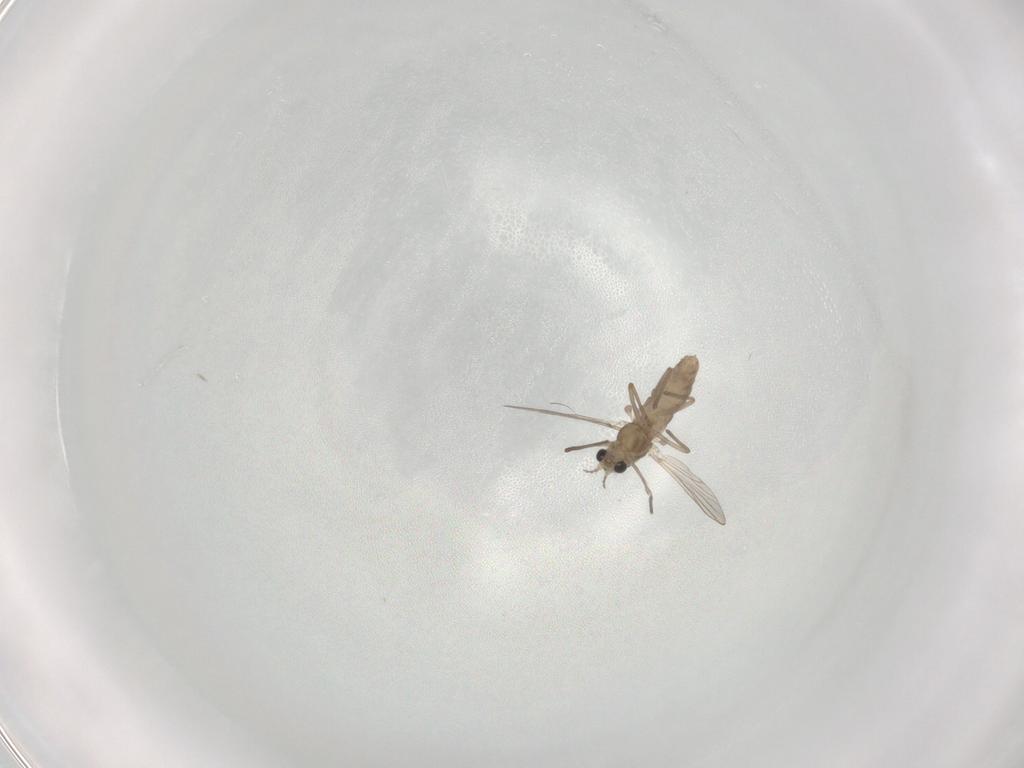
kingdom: Animalia
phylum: Arthropoda
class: Insecta
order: Diptera
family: Chironomidae
